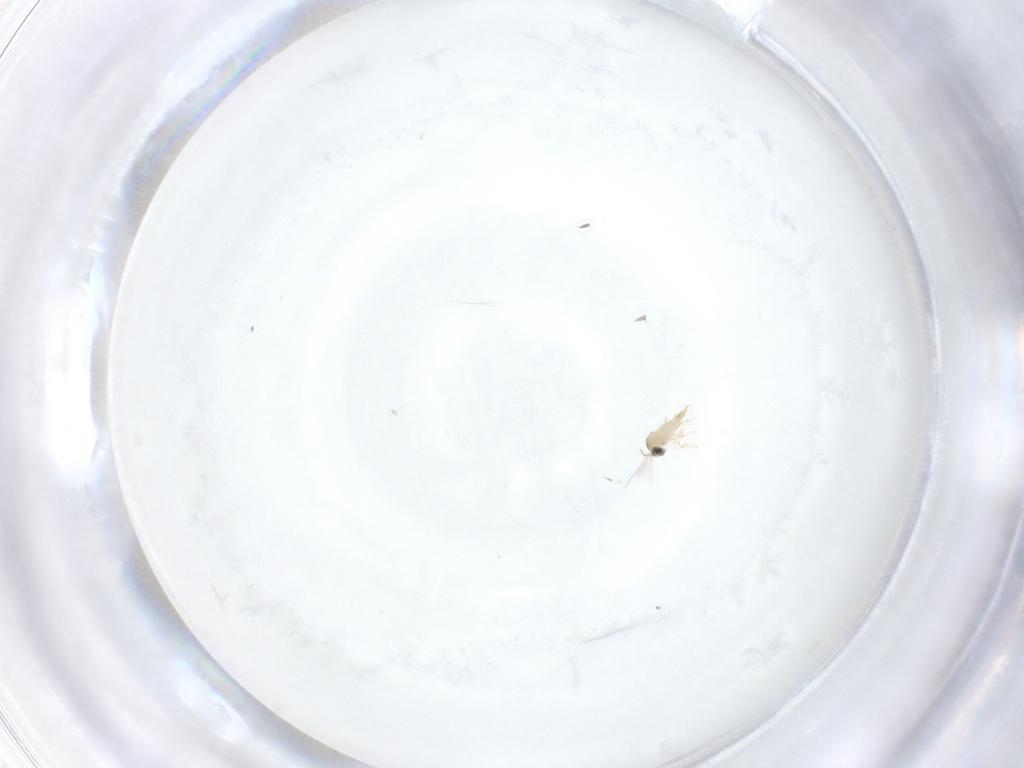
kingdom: Animalia
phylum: Arthropoda
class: Insecta
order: Diptera
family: Cecidomyiidae
